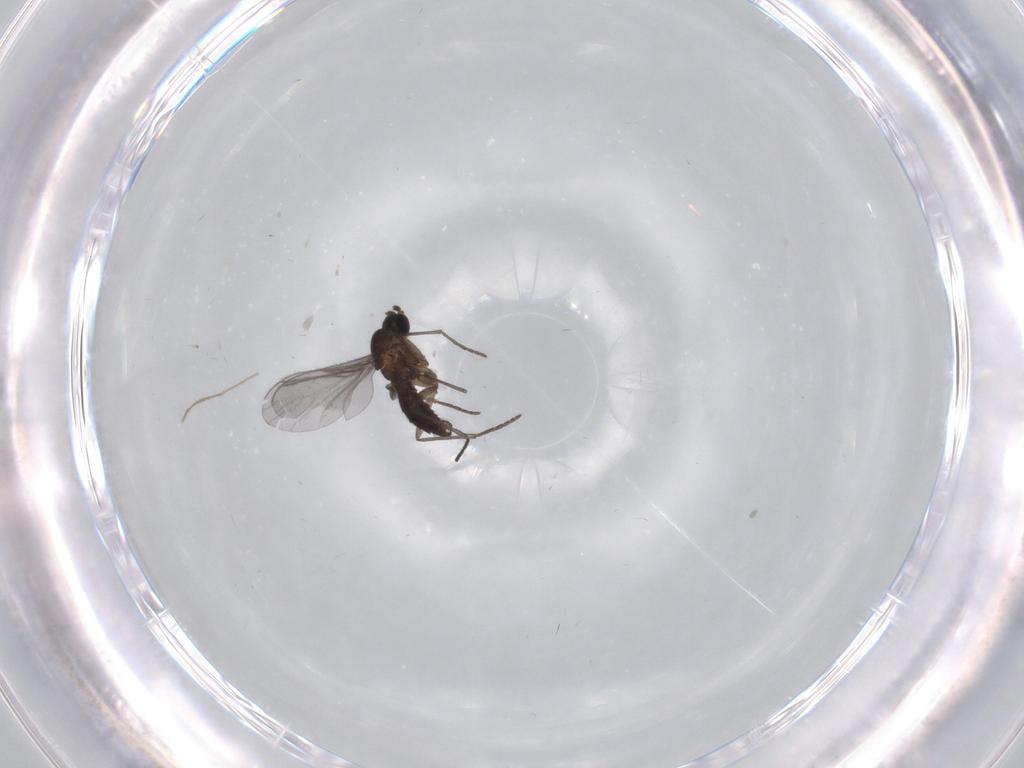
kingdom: Animalia
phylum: Arthropoda
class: Insecta
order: Diptera
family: Sciaridae
